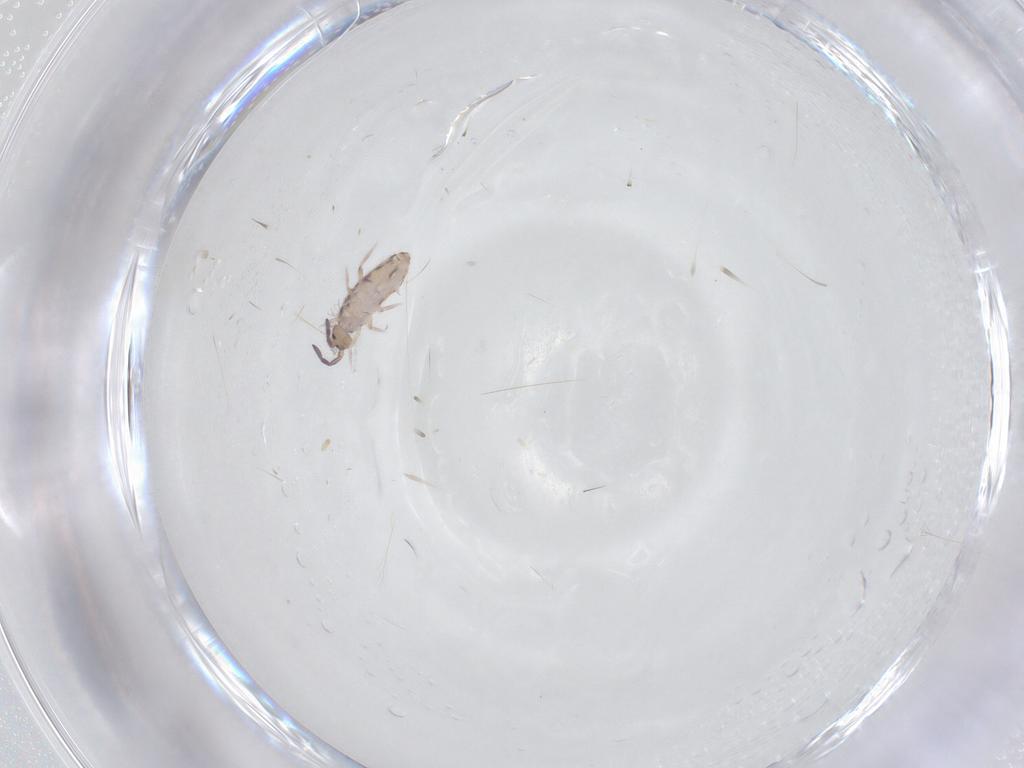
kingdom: Animalia
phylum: Arthropoda
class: Collembola
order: Entomobryomorpha
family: Entomobryidae
